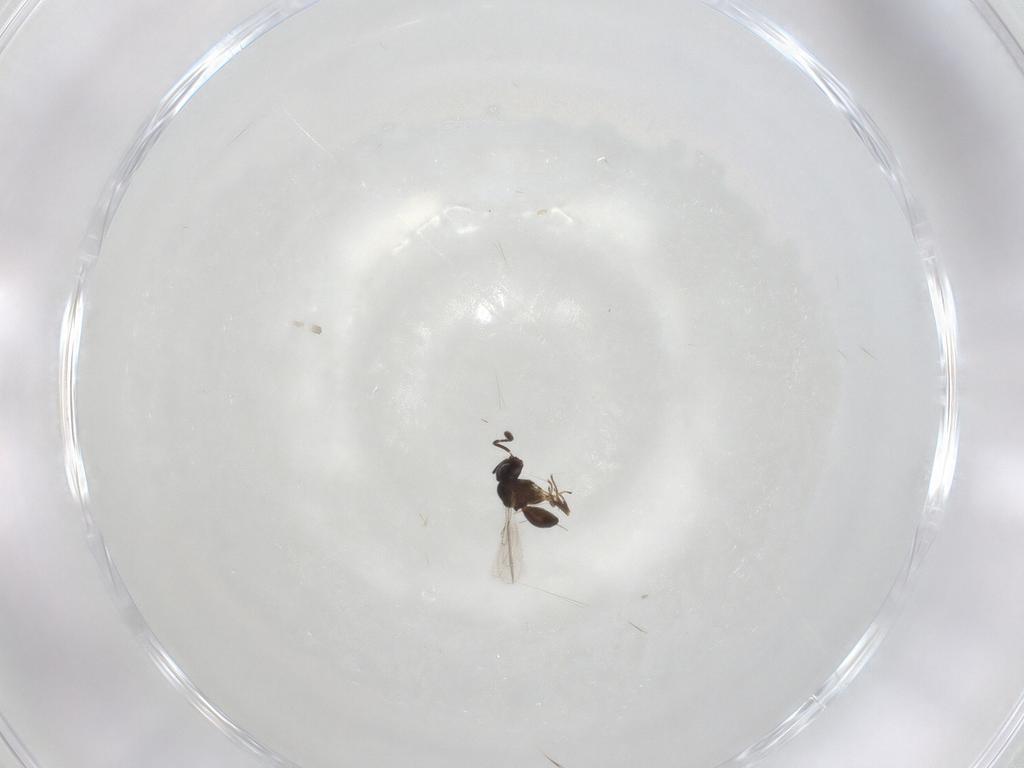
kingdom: Animalia
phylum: Arthropoda
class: Insecta
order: Hymenoptera
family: Scelionidae
